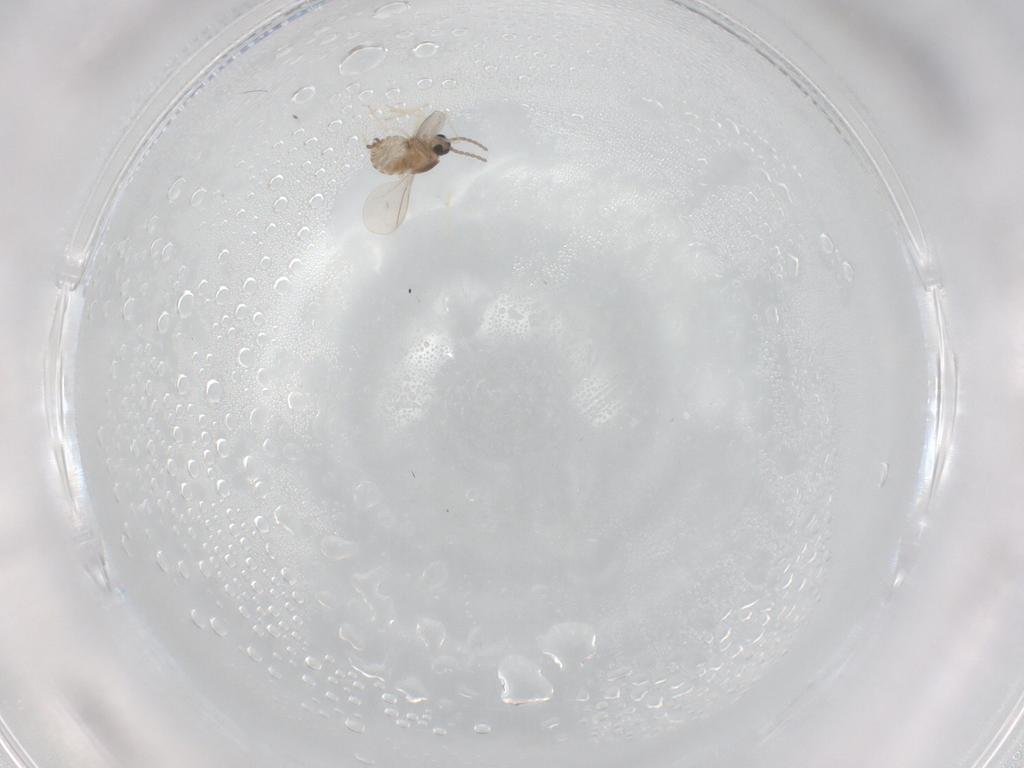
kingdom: Animalia
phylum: Arthropoda
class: Insecta
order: Diptera
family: Cecidomyiidae
